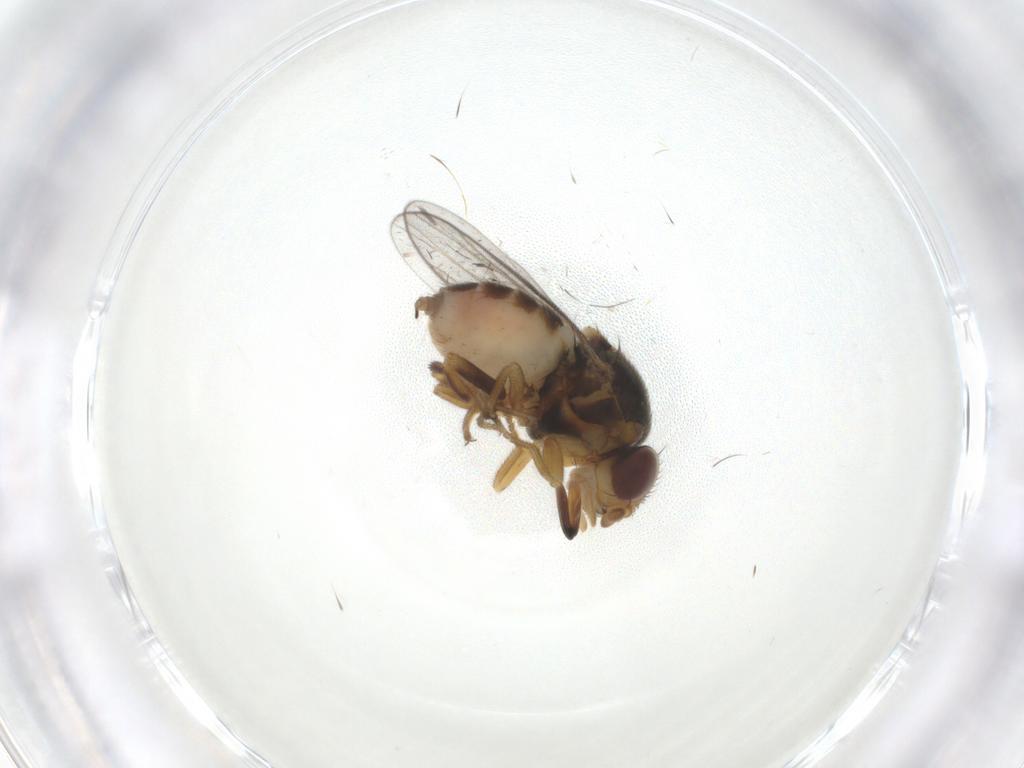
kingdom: Animalia
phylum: Arthropoda
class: Insecta
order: Diptera
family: Chloropidae
